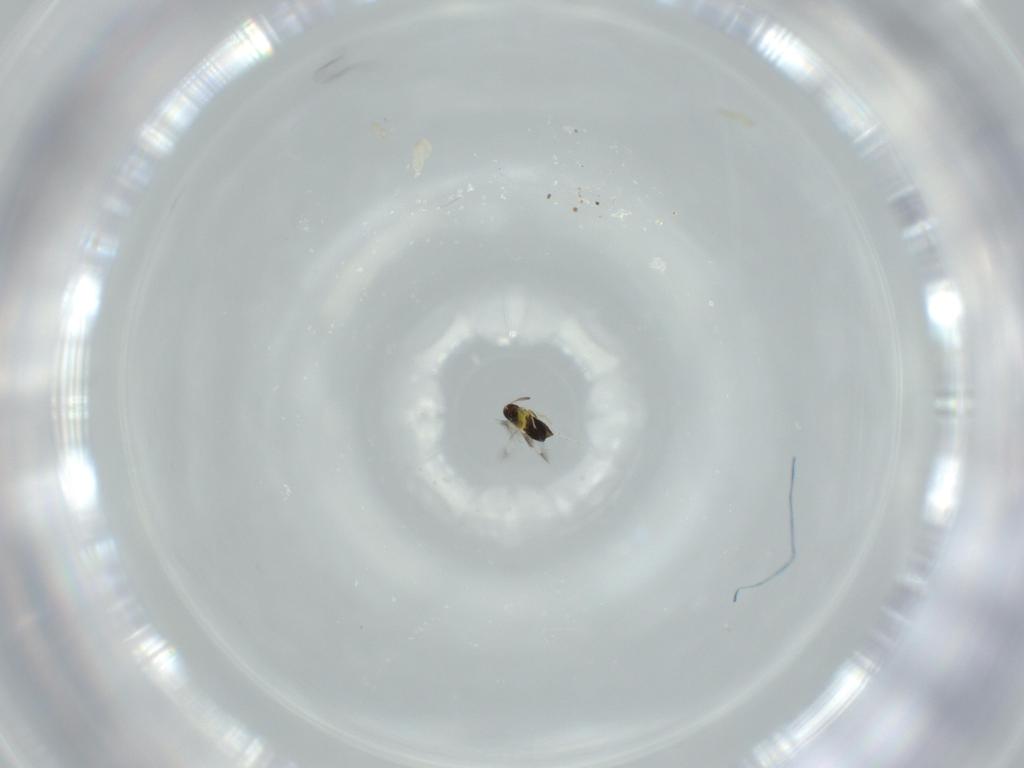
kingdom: Animalia
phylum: Arthropoda
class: Insecta
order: Hymenoptera
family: Signiphoridae
